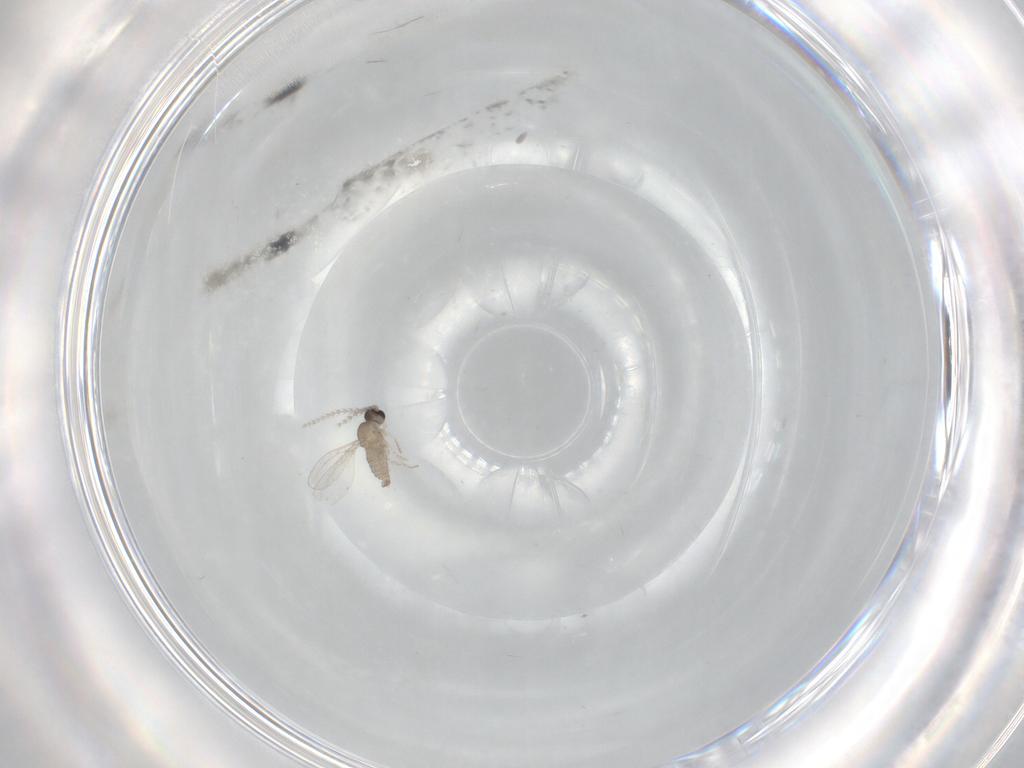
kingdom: Animalia
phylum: Arthropoda
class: Insecta
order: Diptera
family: Cecidomyiidae
